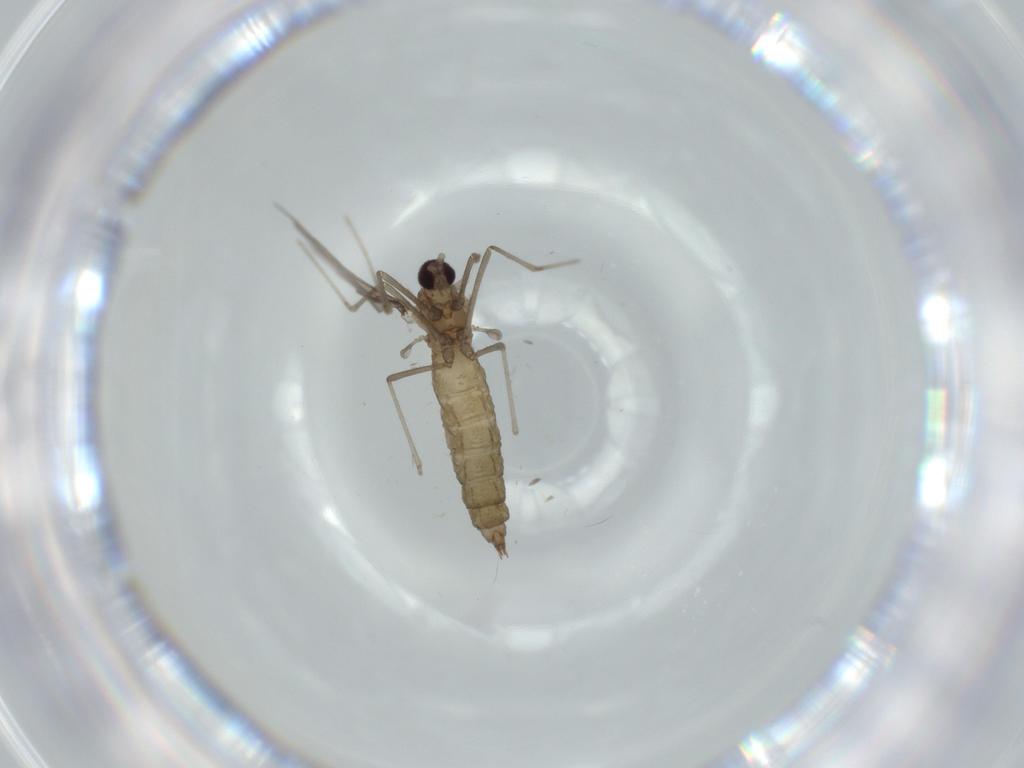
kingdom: Animalia
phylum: Arthropoda
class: Insecta
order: Diptera
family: Cecidomyiidae
